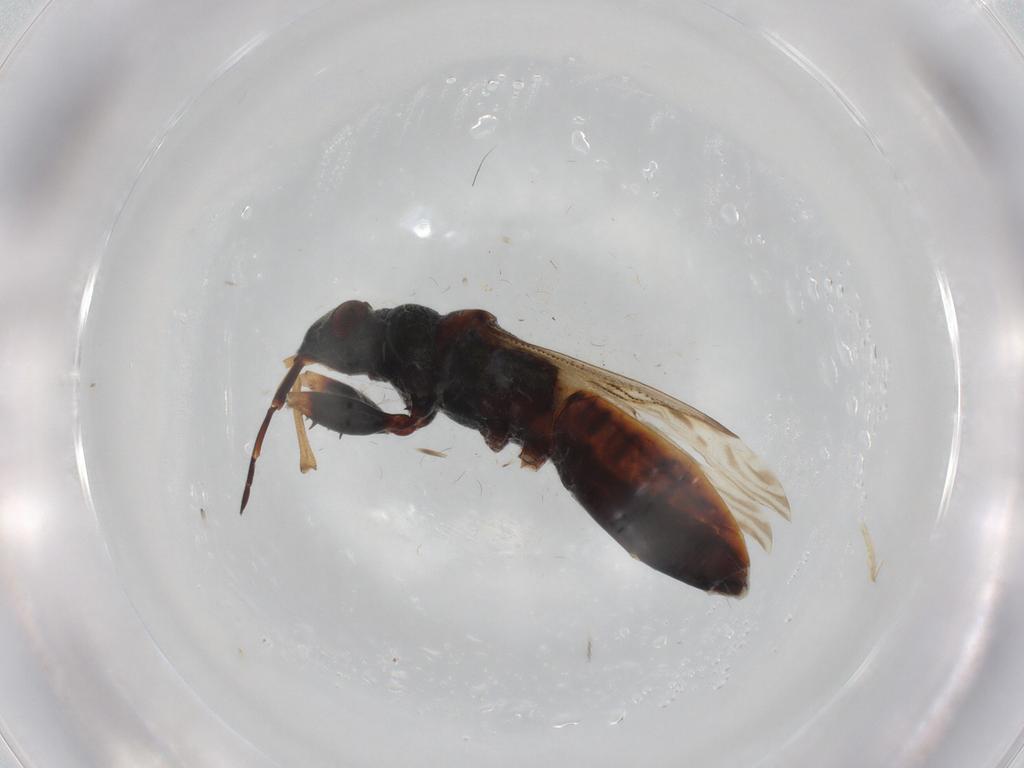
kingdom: Animalia
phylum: Arthropoda
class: Insecta
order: Hemiptera
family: Rhyparochromidae
